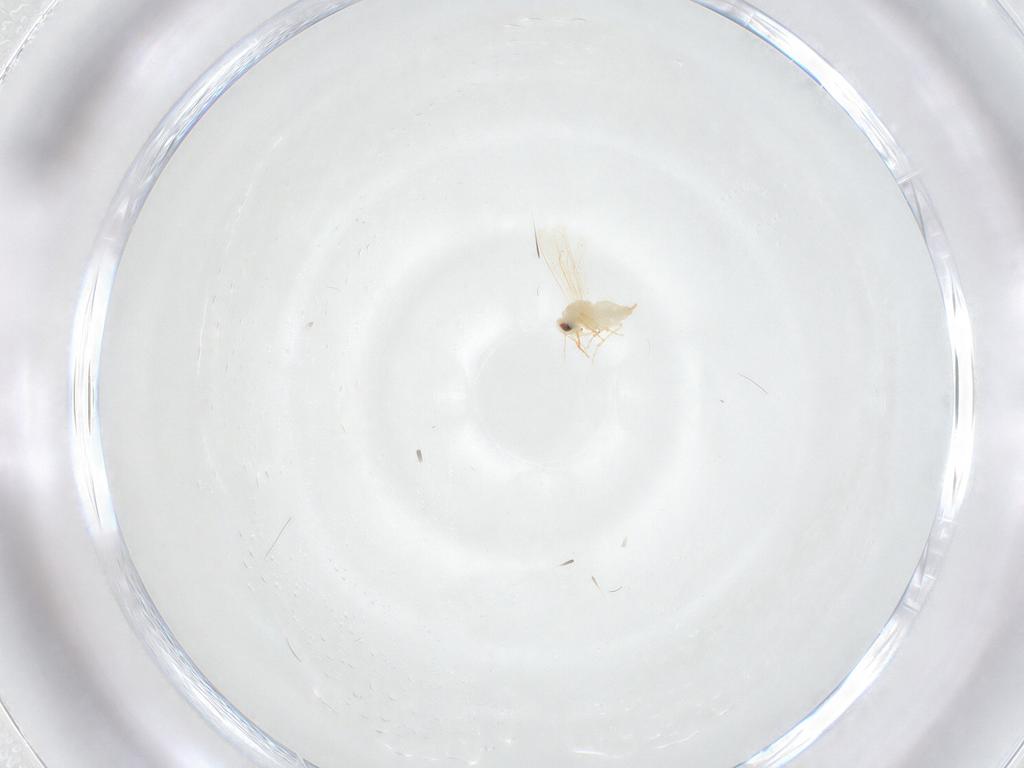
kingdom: Animalia
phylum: Arthropoda
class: Insecta
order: Hemiptera
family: Aleyrodidae
